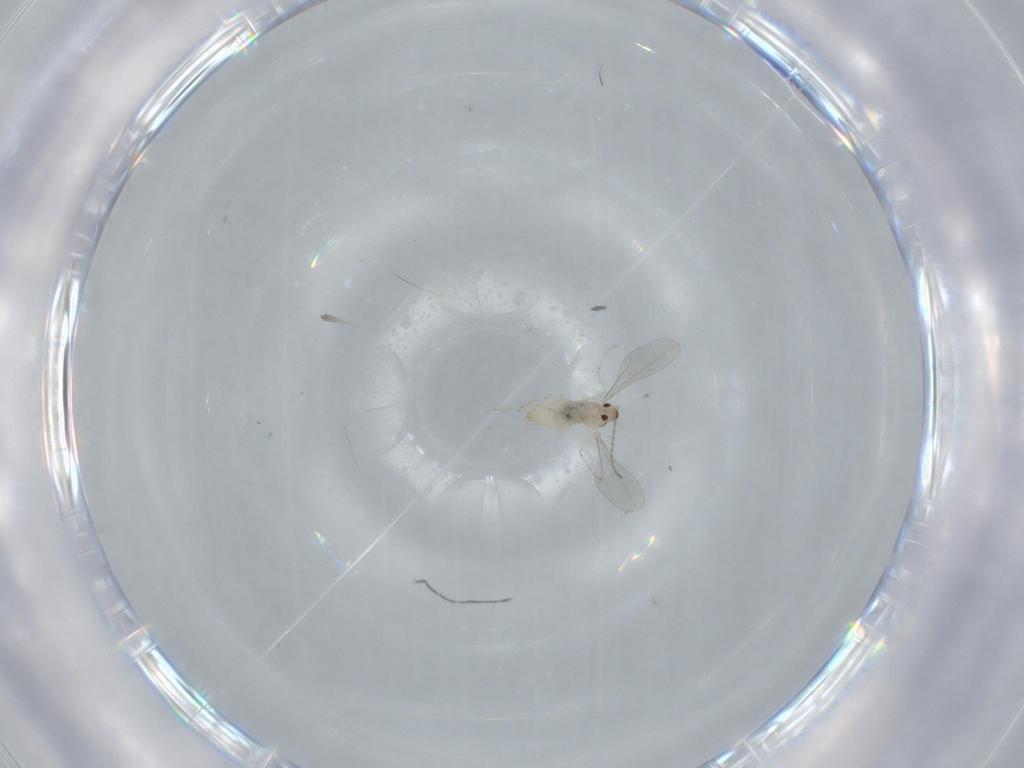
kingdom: Animalia
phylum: Arthropoda
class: Insecta
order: Diptera
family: Cecidomyiidae
